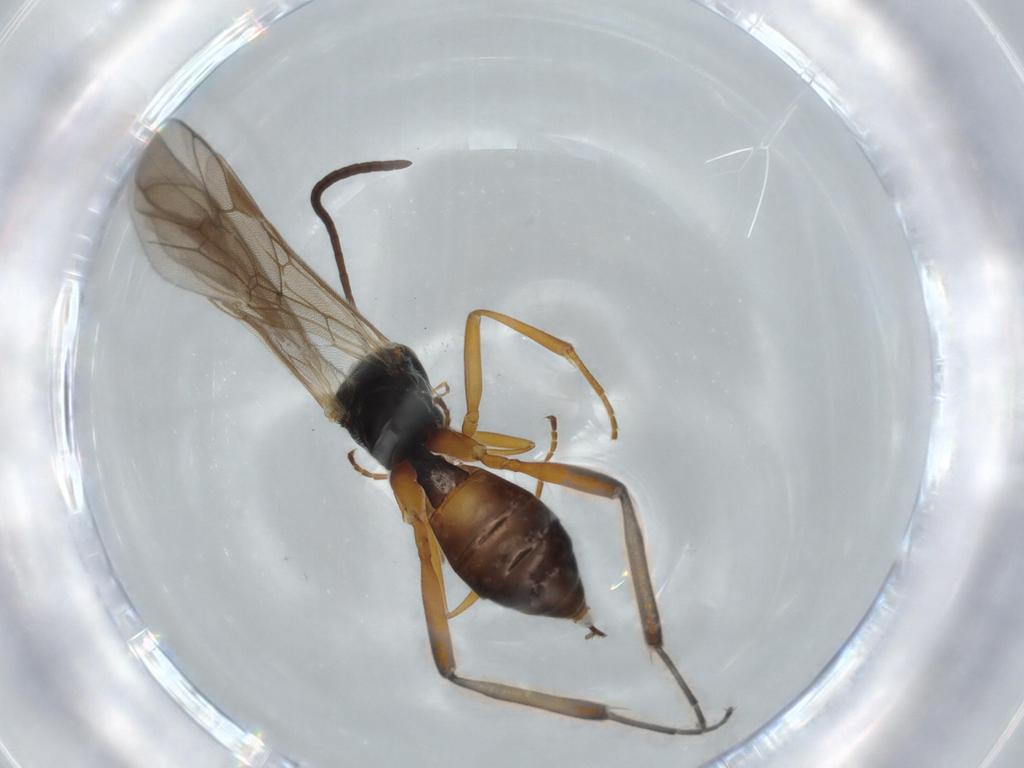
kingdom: Animalia
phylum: Arthropoda
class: Insecta
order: Hymenoptera
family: Ichneumonidae
